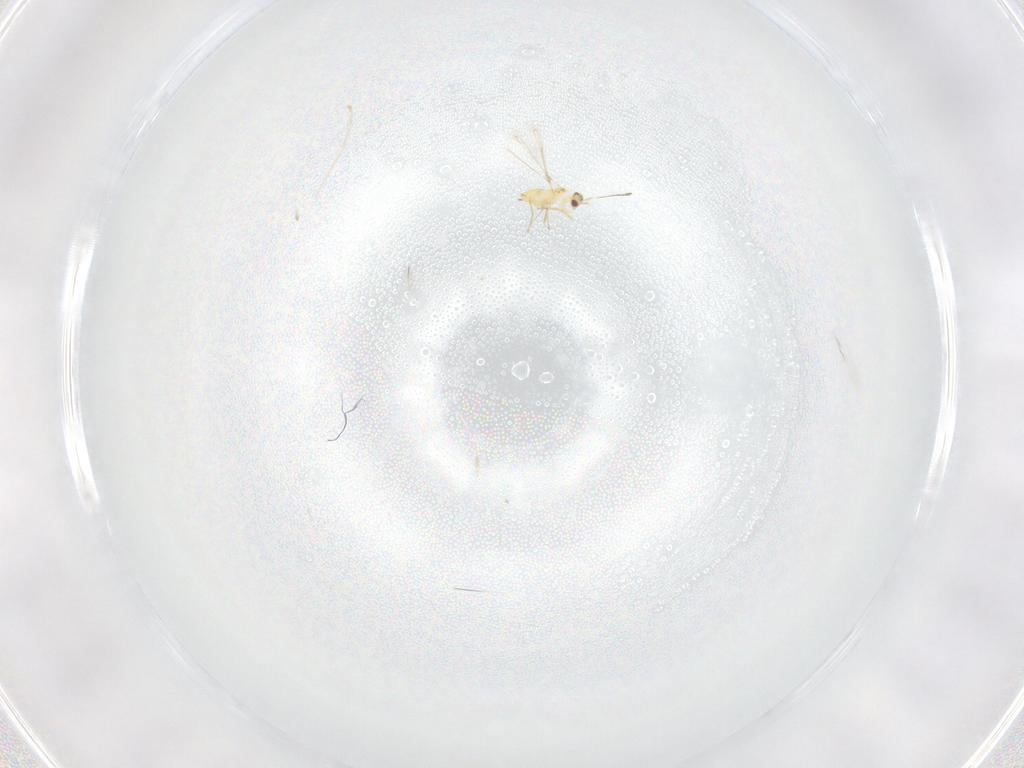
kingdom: Animalia
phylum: Arthropoda
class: Insecta
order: Hymenoptera
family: Mymaridae
